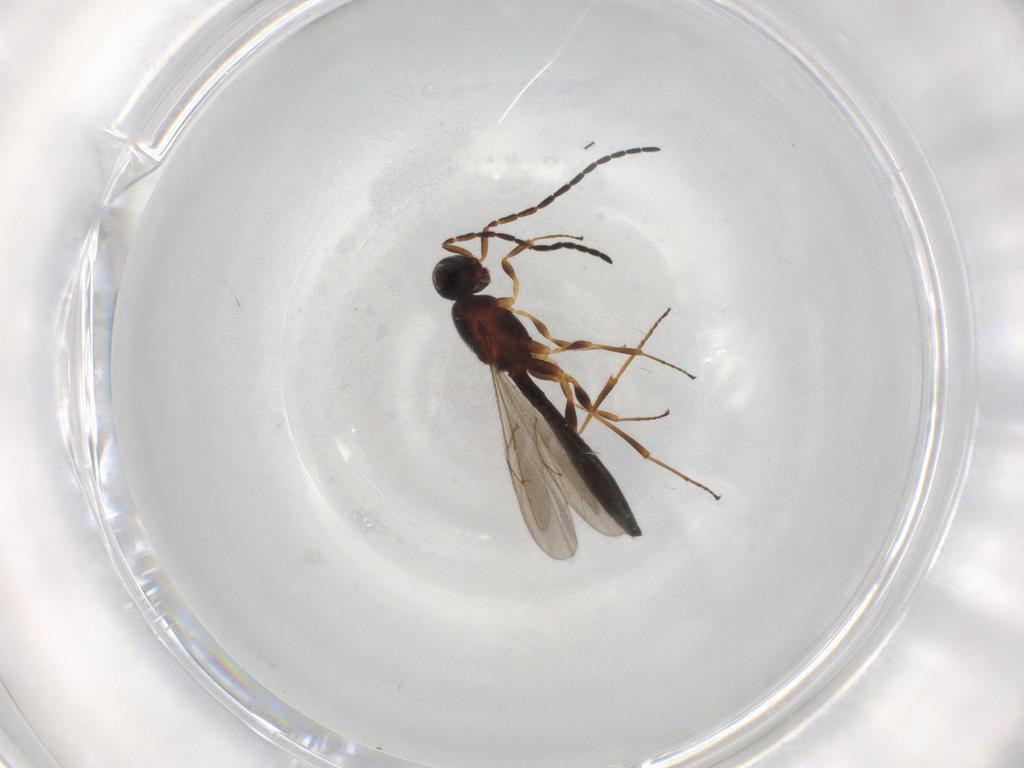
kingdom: Animalia
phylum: Arthropoda
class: Insecta
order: Hymenoptera
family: Scelionidae
